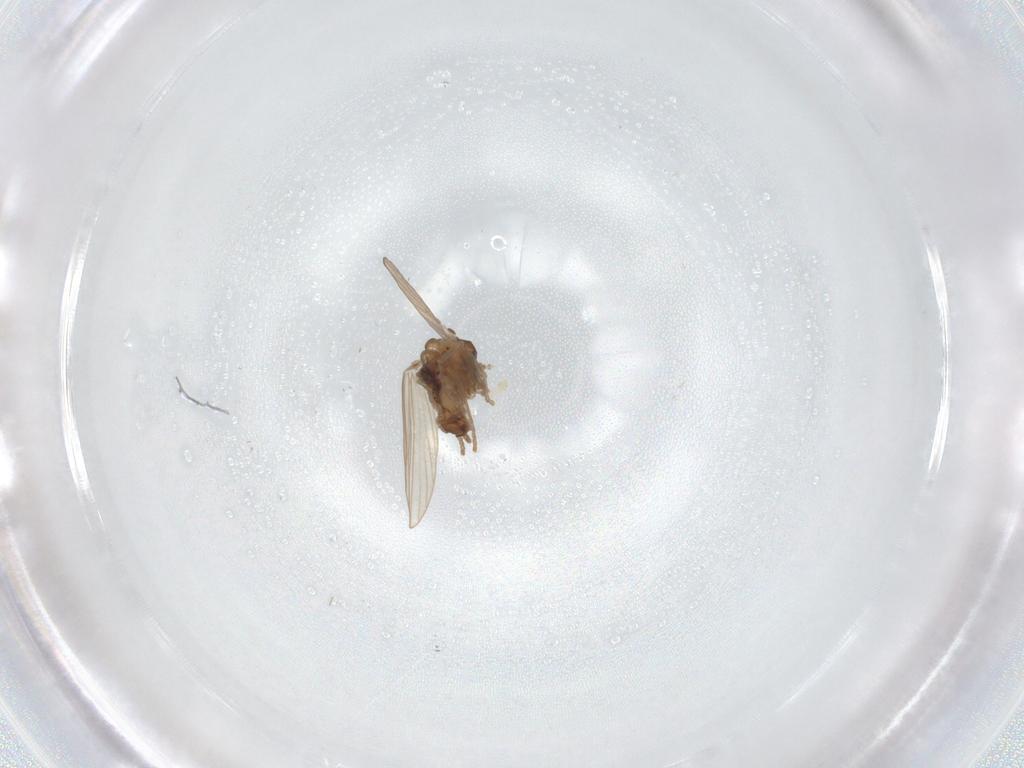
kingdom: Animalia
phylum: Arthropoda
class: Insecta
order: Diptera
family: Psychodidae
